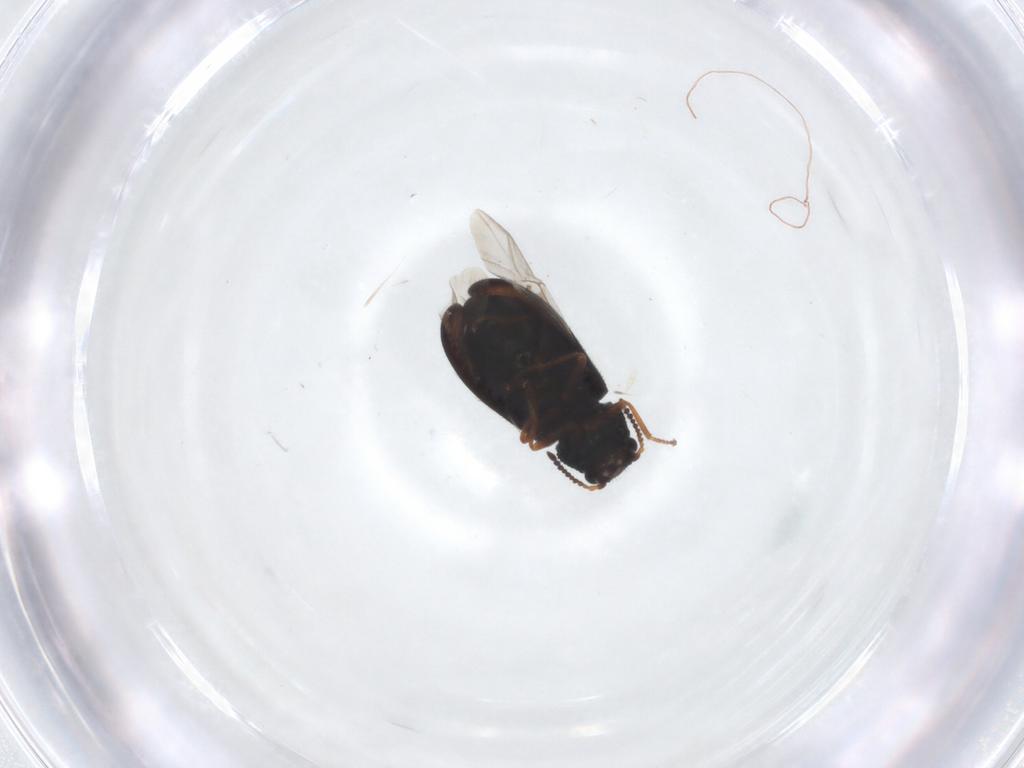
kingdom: Animalia
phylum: Arthropoda
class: Insecta
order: Coleoptera
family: Melyridae
